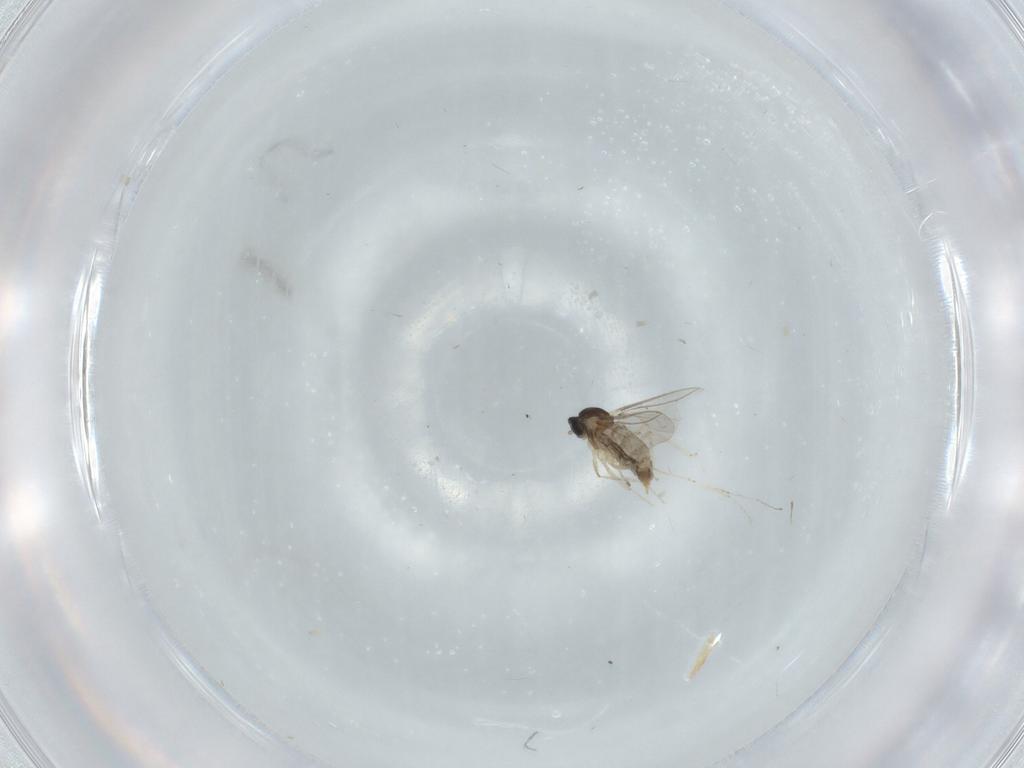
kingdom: Animalia
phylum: Arthropoda
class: Insecta
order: Diptera
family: Cecidomyiidae
